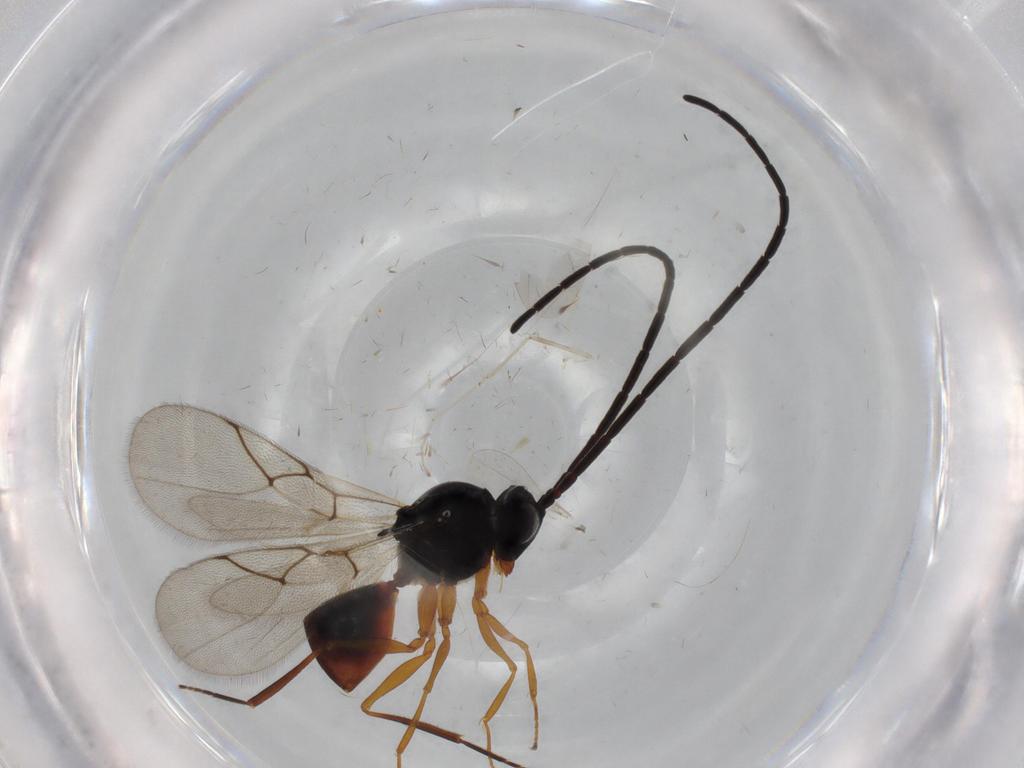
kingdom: Animalia
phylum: Arthropoda
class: Insecta
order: Hymenoptera
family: Figitidae
